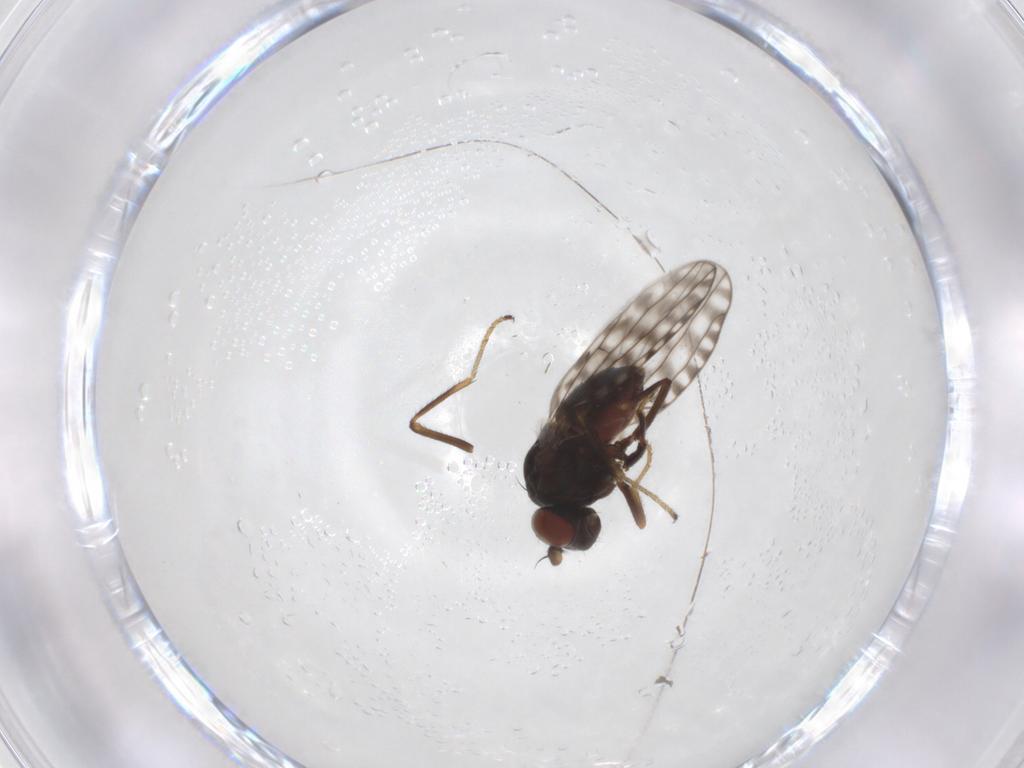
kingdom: Animalia
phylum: Arthropoda
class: Insecta
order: Diptera
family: Ephydridae
